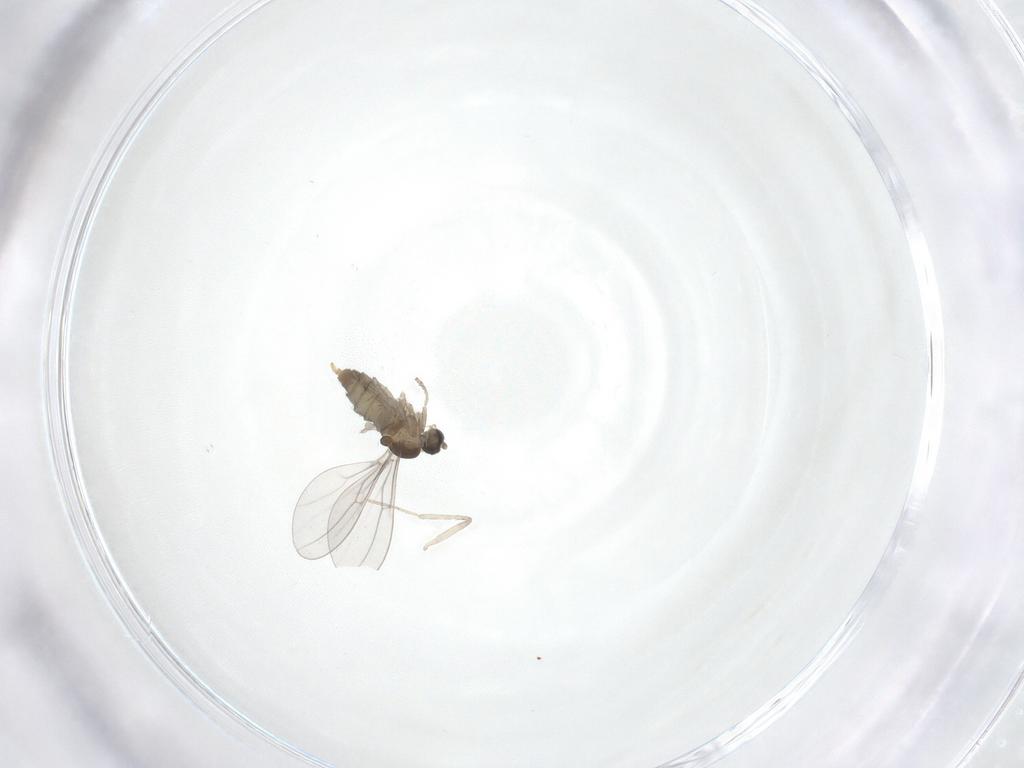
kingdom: Animalia
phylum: Arthropoda
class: Insecta
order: Diptera
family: Cecidomyiidae
